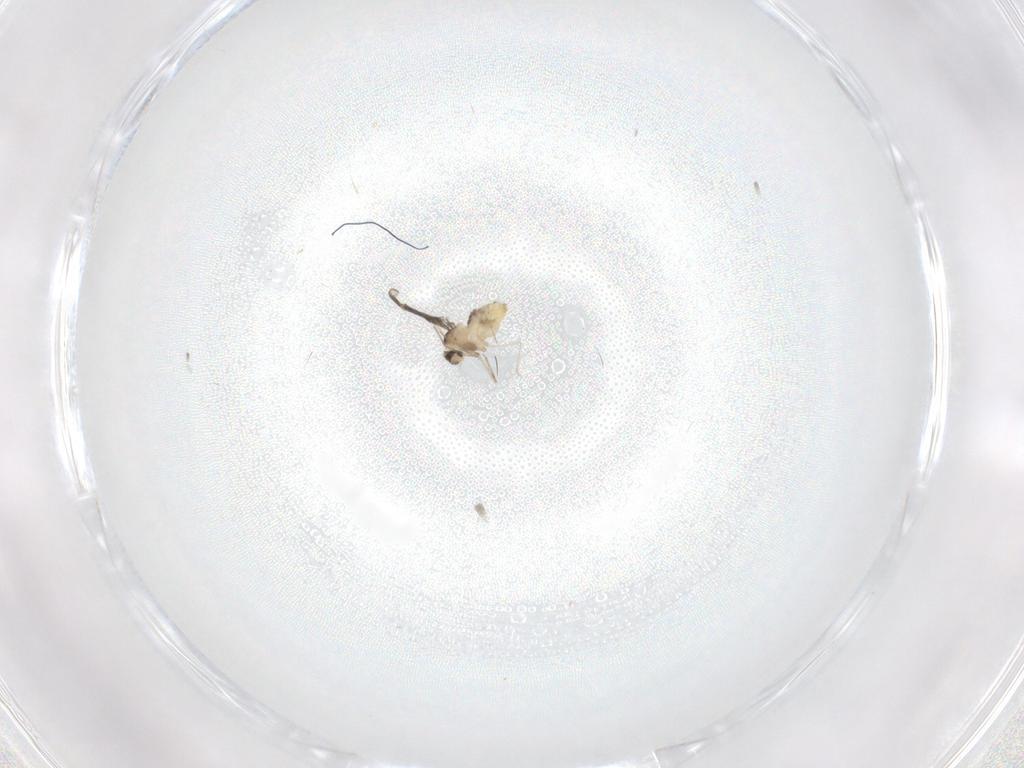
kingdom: Animalia
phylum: Arthropoda
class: Insecta
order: Diptera
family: Cecidomyiidae
